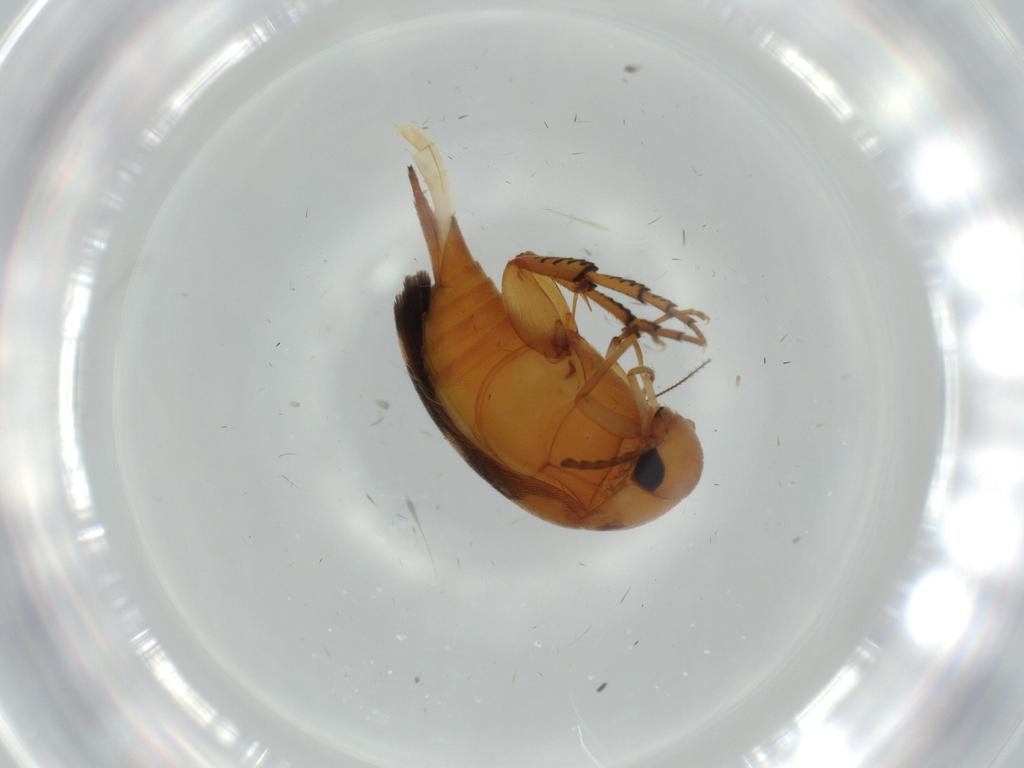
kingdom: Animalia
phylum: Arthropoda
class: Insecta
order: Coleoptera
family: Mordellidae
